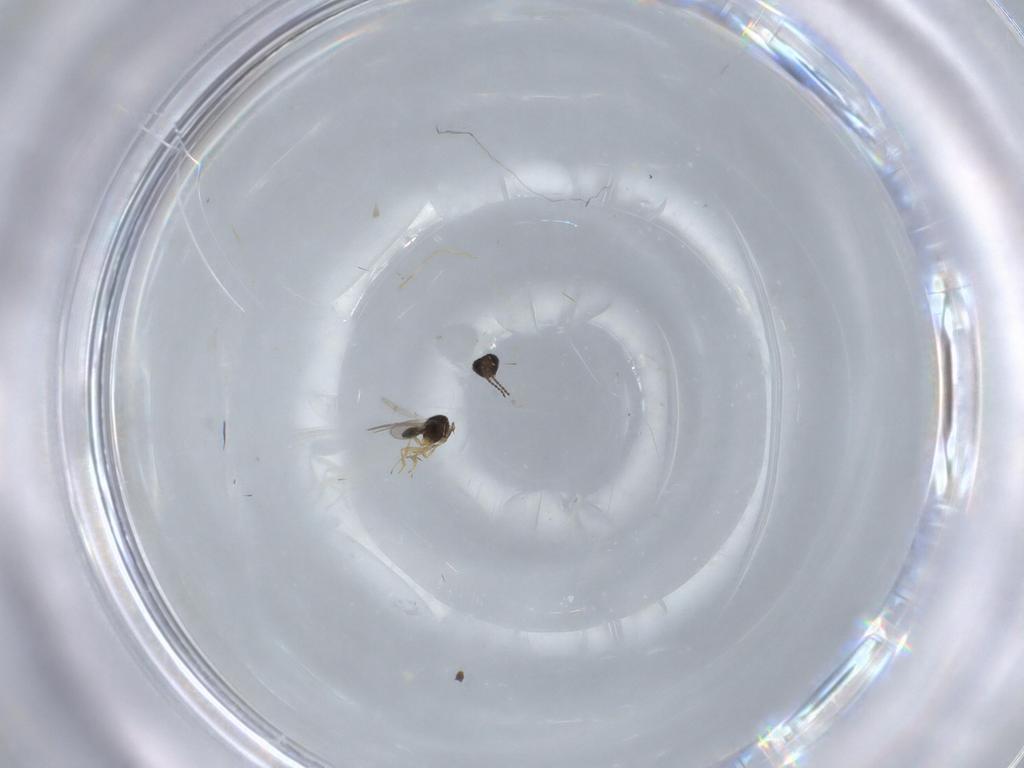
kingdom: Animalia
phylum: Arthropoda
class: Insecta
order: Hymenoptera
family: Scelionidae
